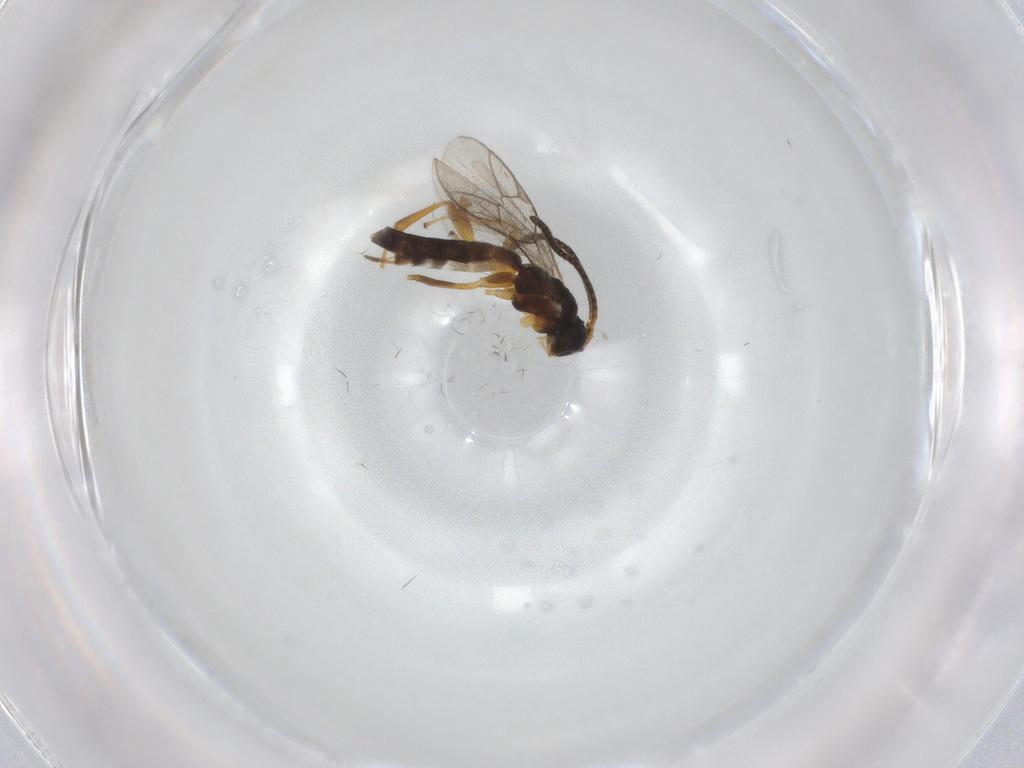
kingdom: Animalia
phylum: Arthropoda
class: Insecta
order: Hymenoptera
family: Ichneumonidae
